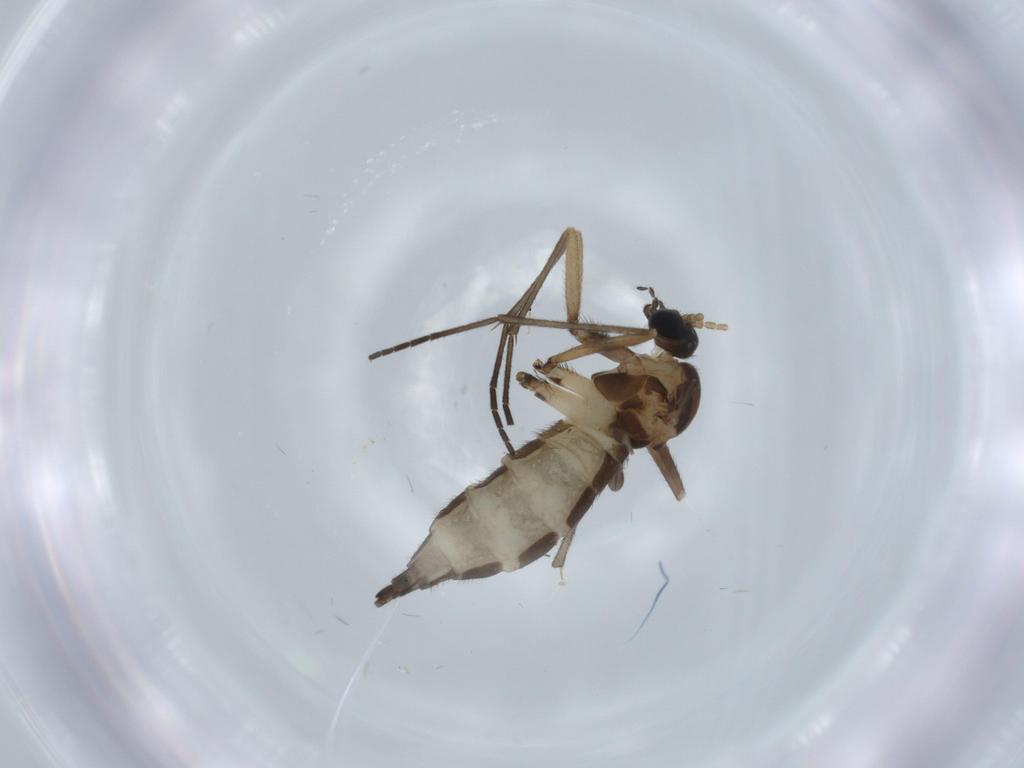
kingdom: Animalia
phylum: Arthropoda
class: Insecta
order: Diptera
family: Sciaridae
